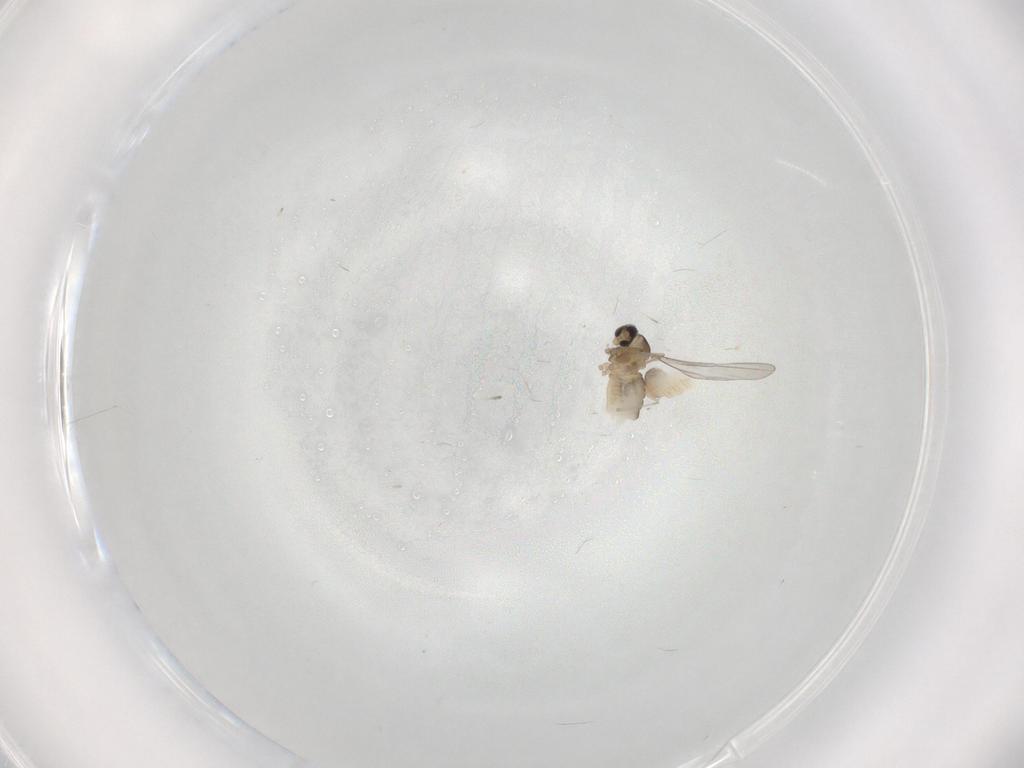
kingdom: Animalia
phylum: Arthropoda
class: Insecta
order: Diptera
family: Cecidomyiidae
